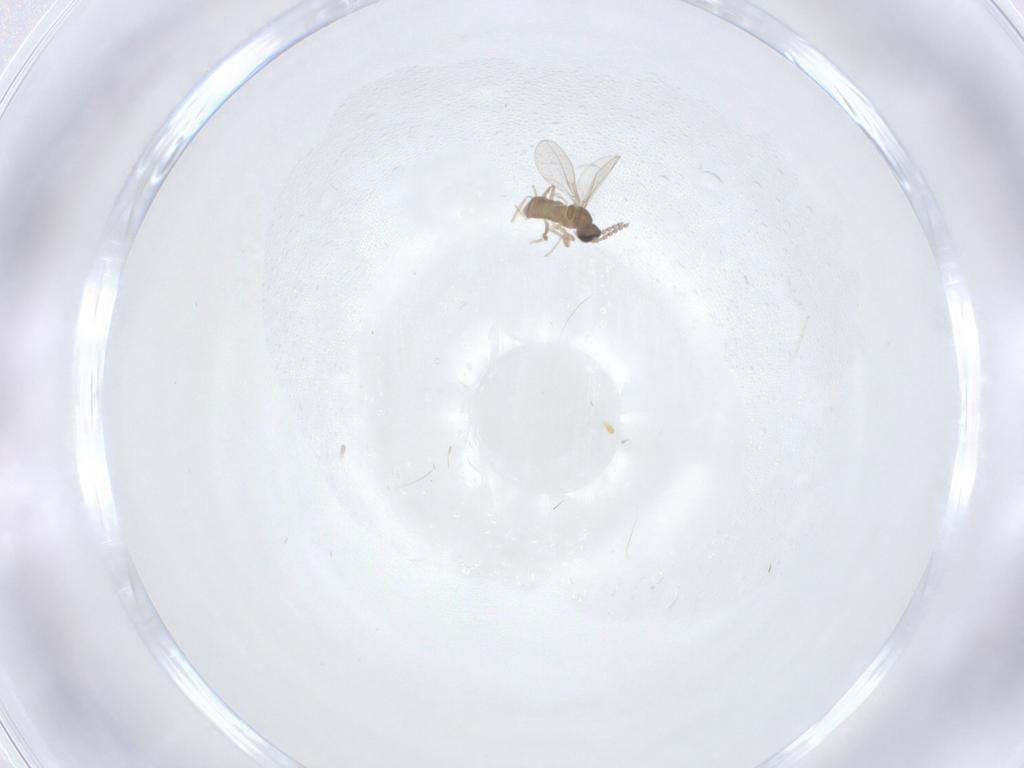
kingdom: Animalia
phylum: Arthropoda
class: Insecta
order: Diptera
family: Cecidomyiidae
